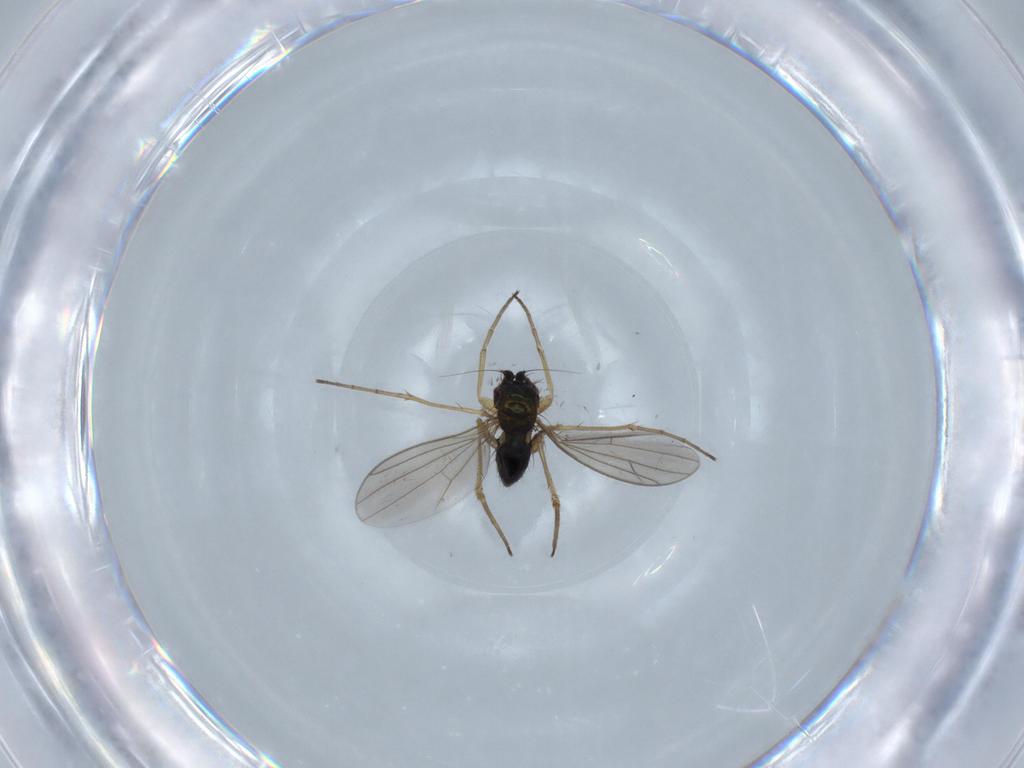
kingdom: Animalia
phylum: Arthropoda
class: Insecta
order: Diptera
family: Dolichopodidae
